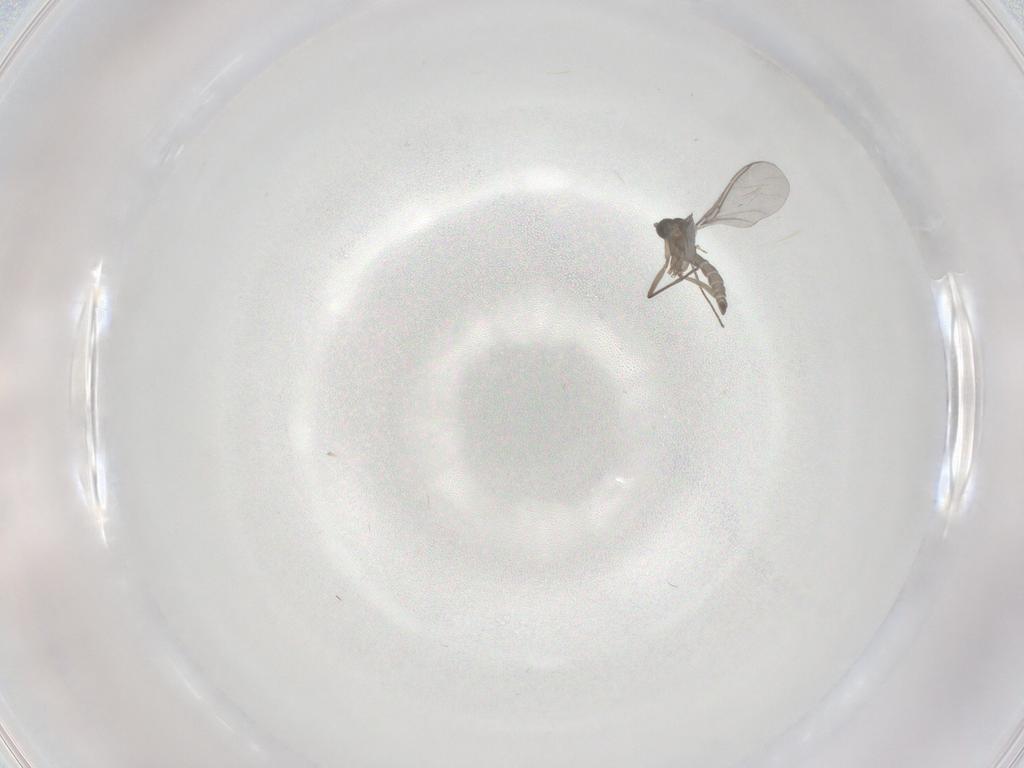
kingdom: Animalia
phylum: Arthropoda
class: Insecta
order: Diptera
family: Sciaridae
